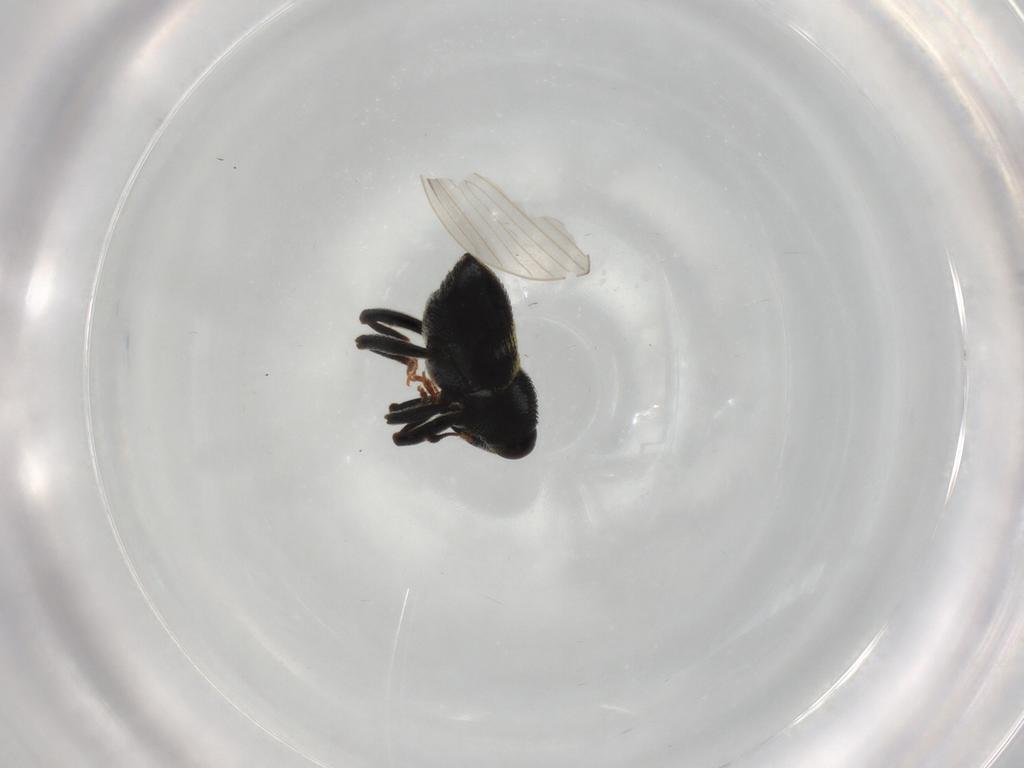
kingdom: Animalia
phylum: Arthropoda
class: Insecta
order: Coleoptera
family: Curculionidae
